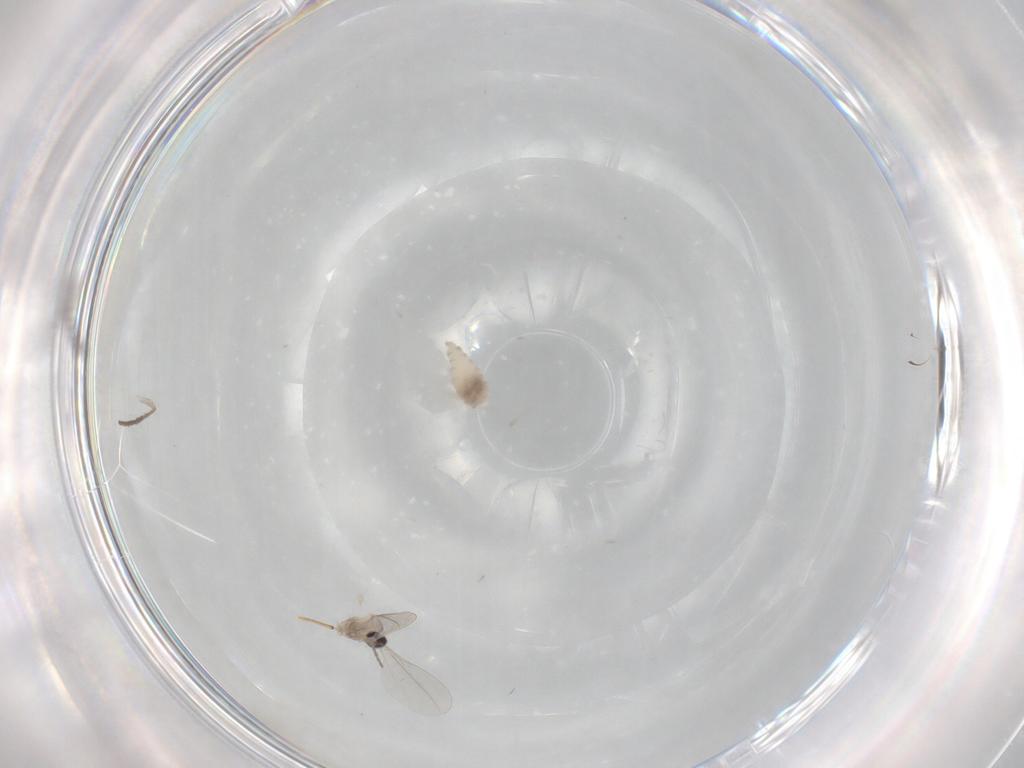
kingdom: Animalia
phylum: Arthropoda
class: Insecta
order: Diptera
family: Limoniidae
